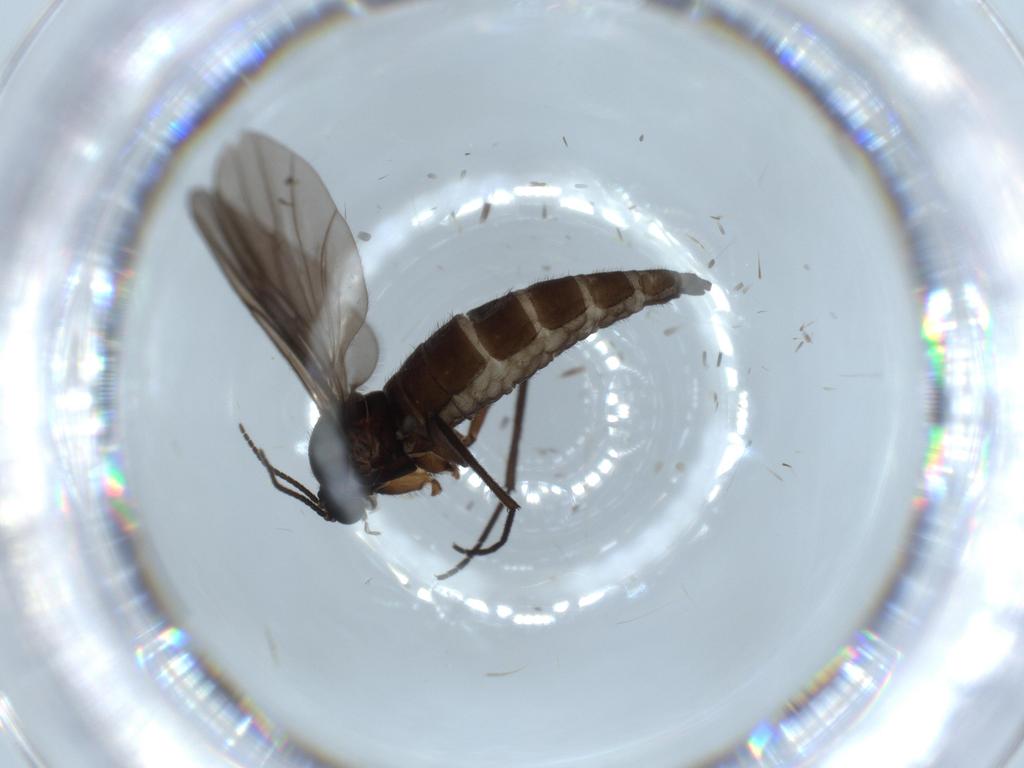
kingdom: Animalia
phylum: Arthropoda
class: Insecta
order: Diptera
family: Sciaridae
